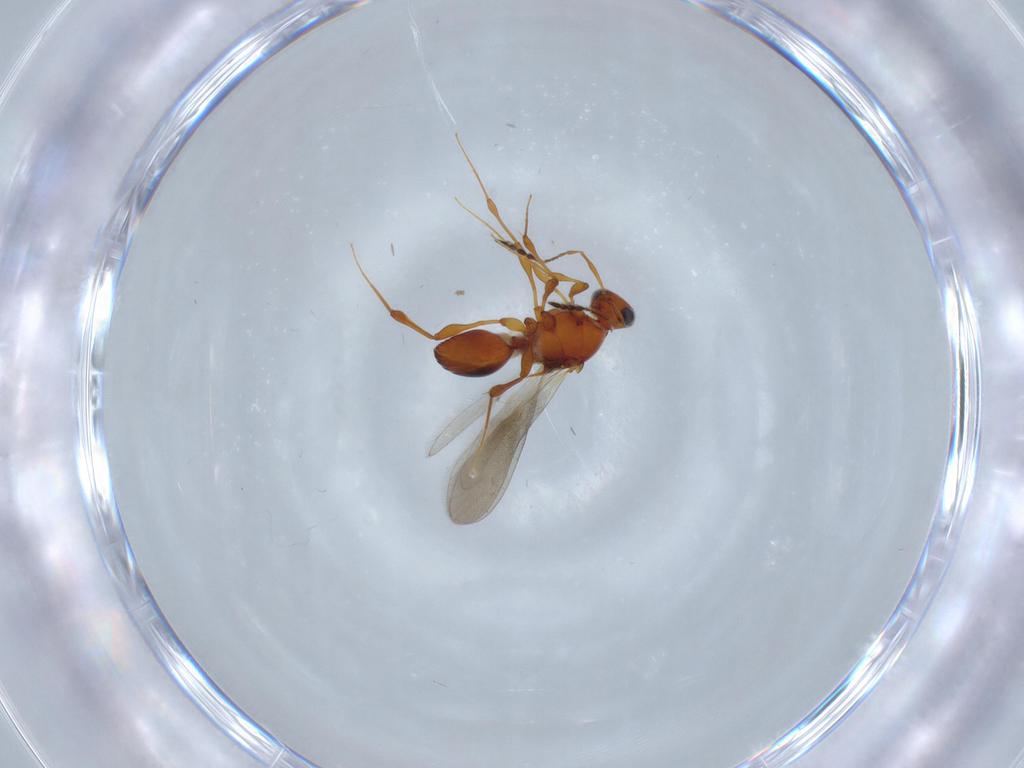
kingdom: Animalia
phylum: Arthropoda
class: Insecta
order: Hymenoptera
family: Platygastridae
